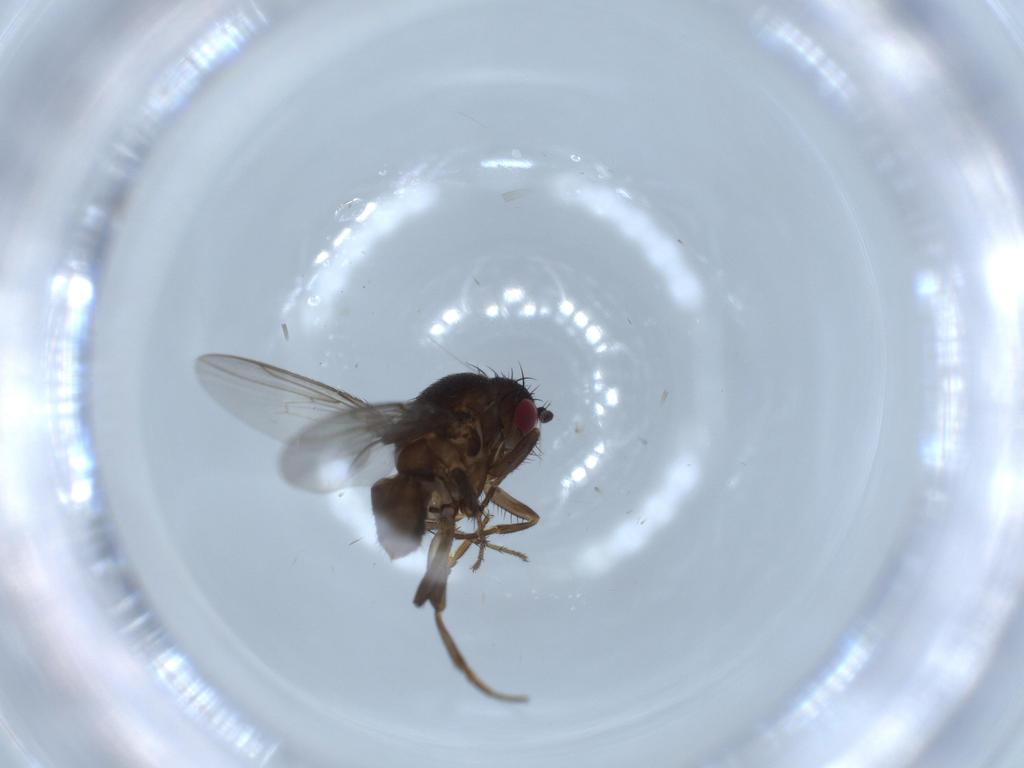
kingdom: Animalia
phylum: Arthropoda
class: Insecta
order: Diptera
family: Sphaeroceridae
